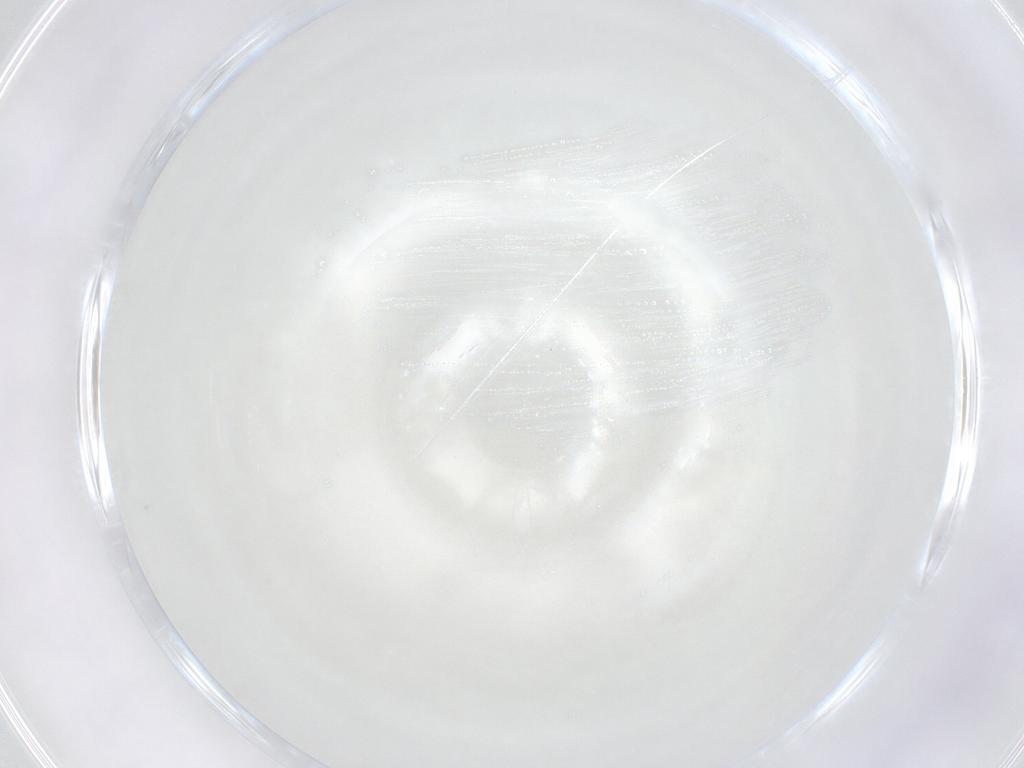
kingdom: Animalia
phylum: Arthropoda
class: Insecta
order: Diptera
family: Cecidomyiidae
